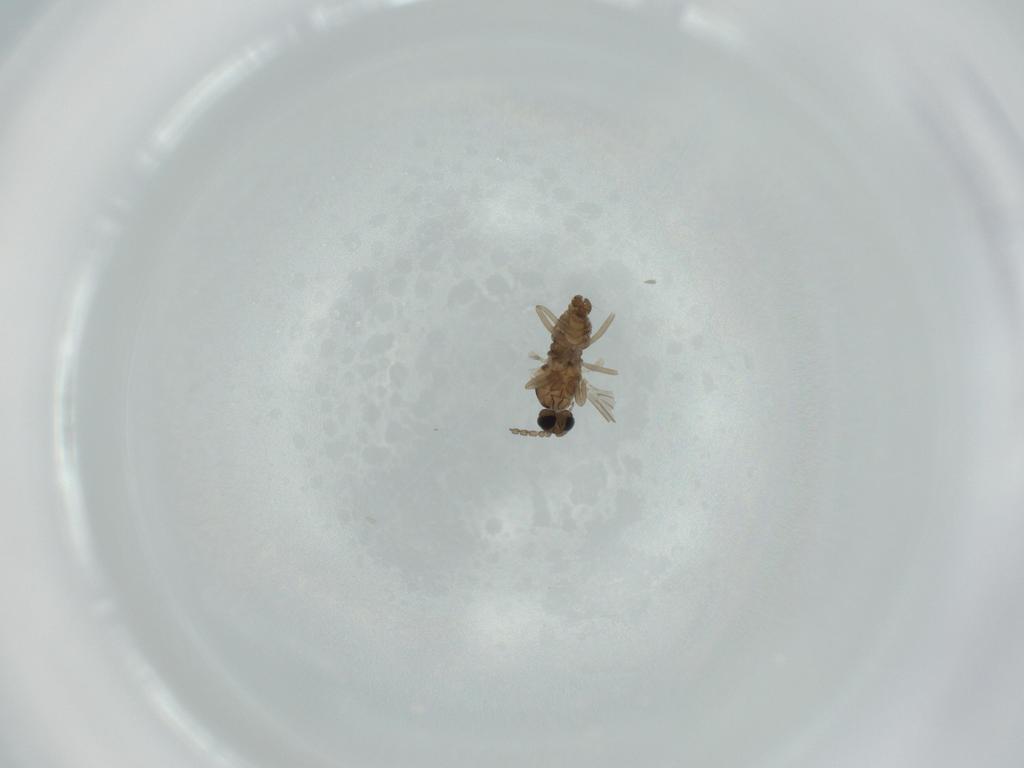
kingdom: Animalia
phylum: Arthropoda
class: Insecta
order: Diptera
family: Cecidomyiidae
